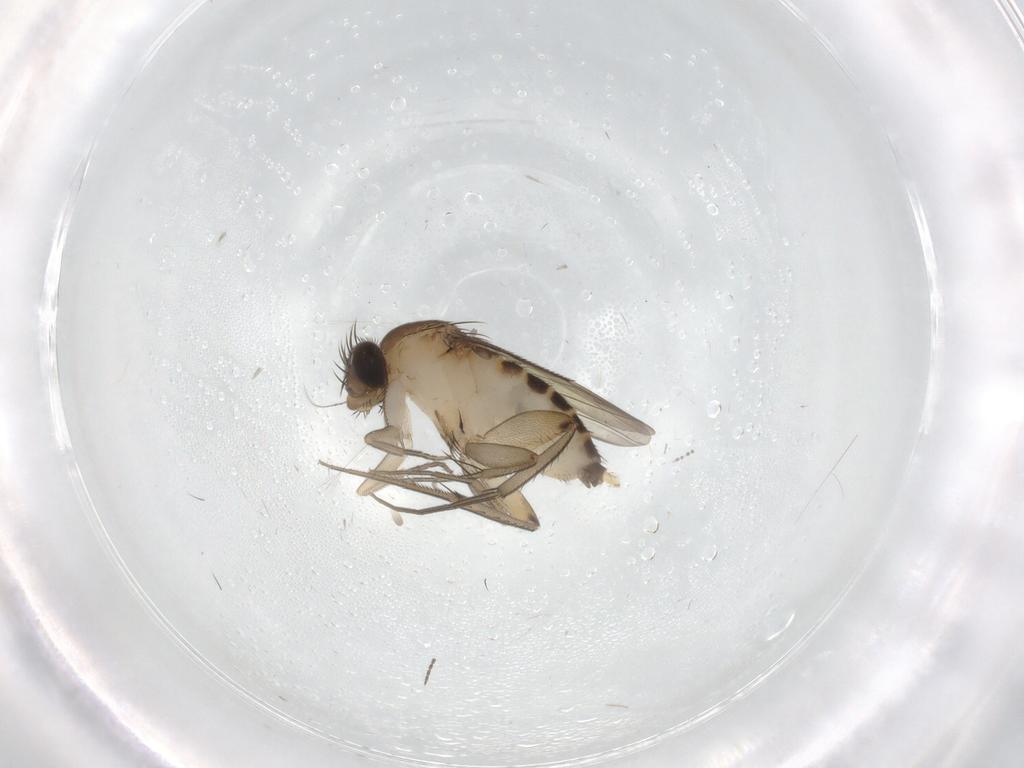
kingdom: Animalia
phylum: Arthropoda
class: Insecta
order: Diptera
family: Phoridae
